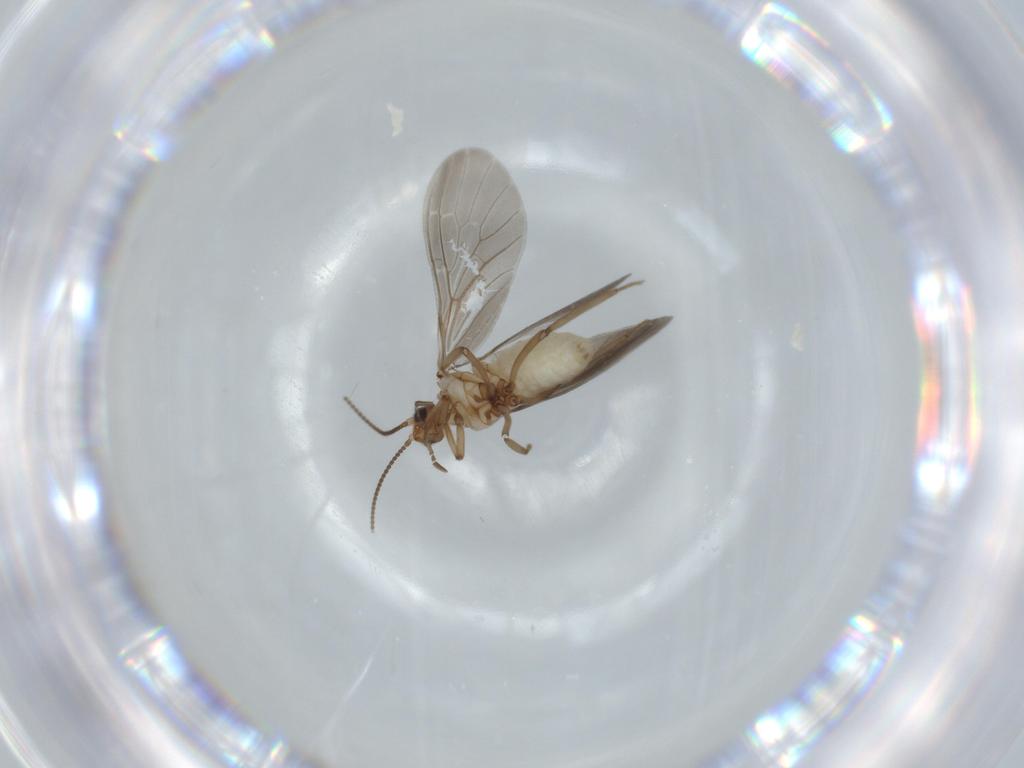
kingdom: Animalia
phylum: Arthropoda
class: Insecta
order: Neuroptera
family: Coniopterygidae
